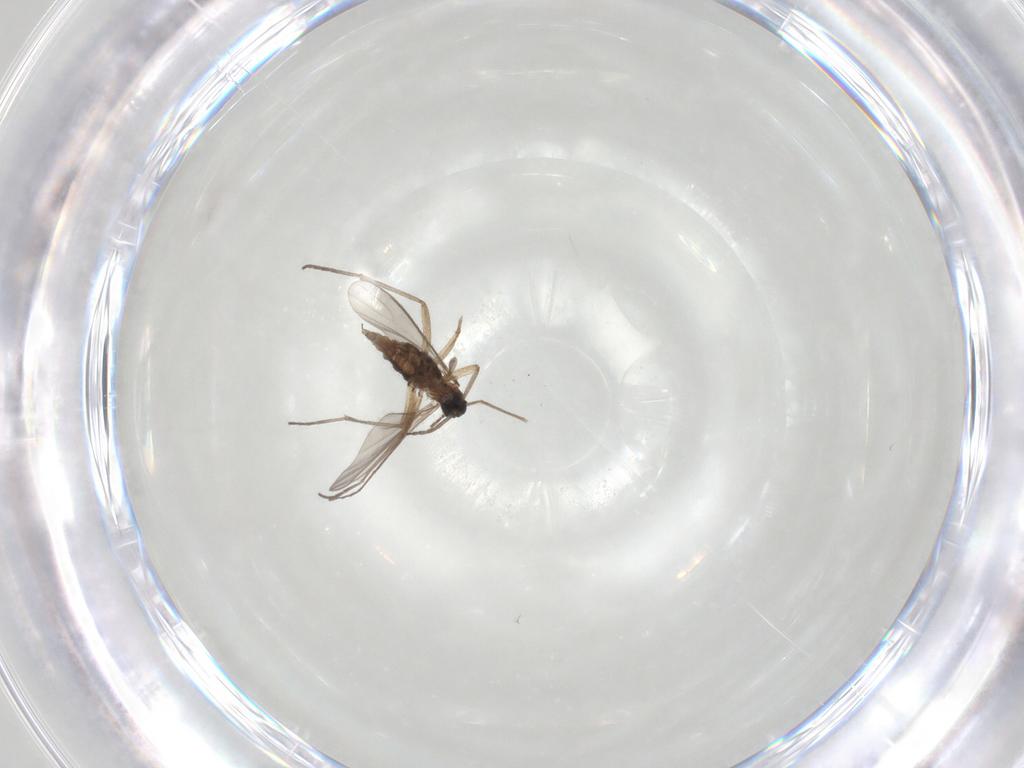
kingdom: Animalia
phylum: Arthropoda
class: Insecta
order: Diptera
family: Sciaridae
